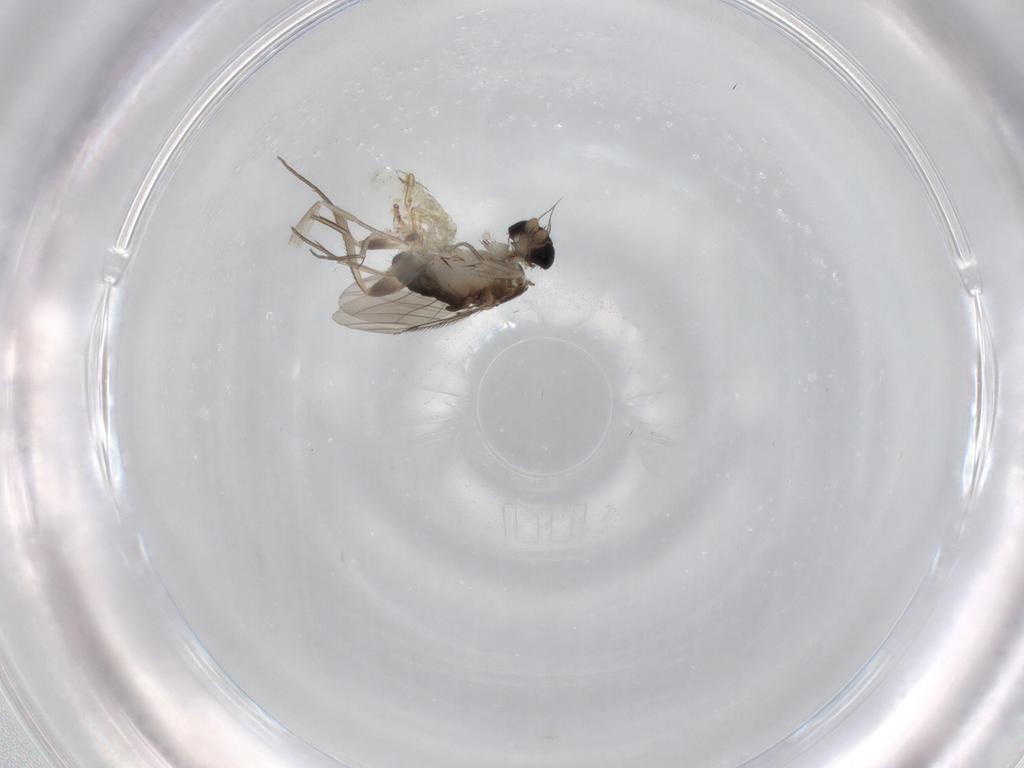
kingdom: Animalia
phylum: Arthropoda
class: Insecta
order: Diptera
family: Phoridae
